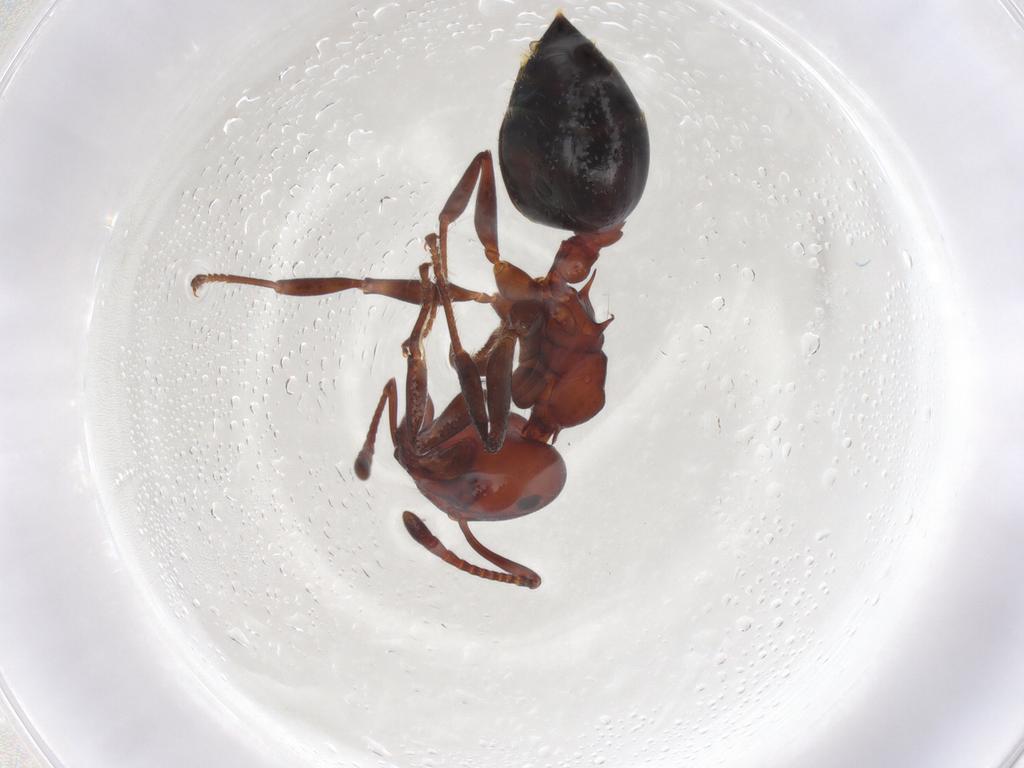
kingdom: Animalia
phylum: Arthropoda
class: Insecta
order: Hymenoptera
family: Formicidae
